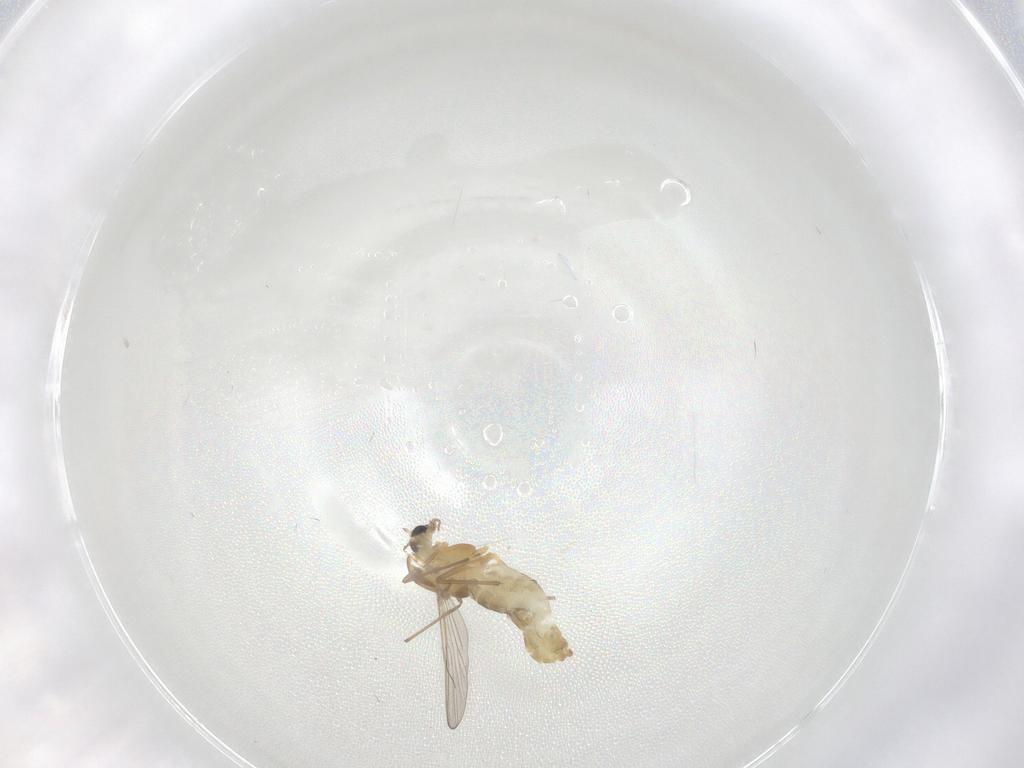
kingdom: Animalia
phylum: Arthropoda
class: Insecta
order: Diptera
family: Chironomidae
